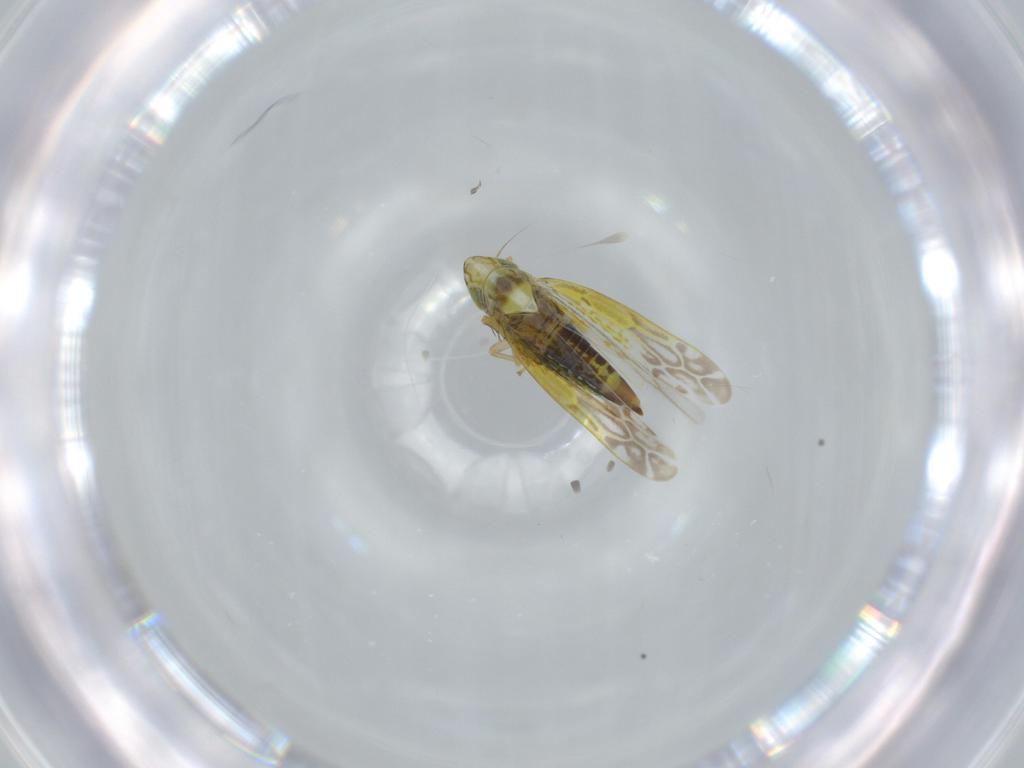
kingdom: Animalia
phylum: Arthropoda
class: Insecta
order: Hemiptera
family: Cicadellidae
